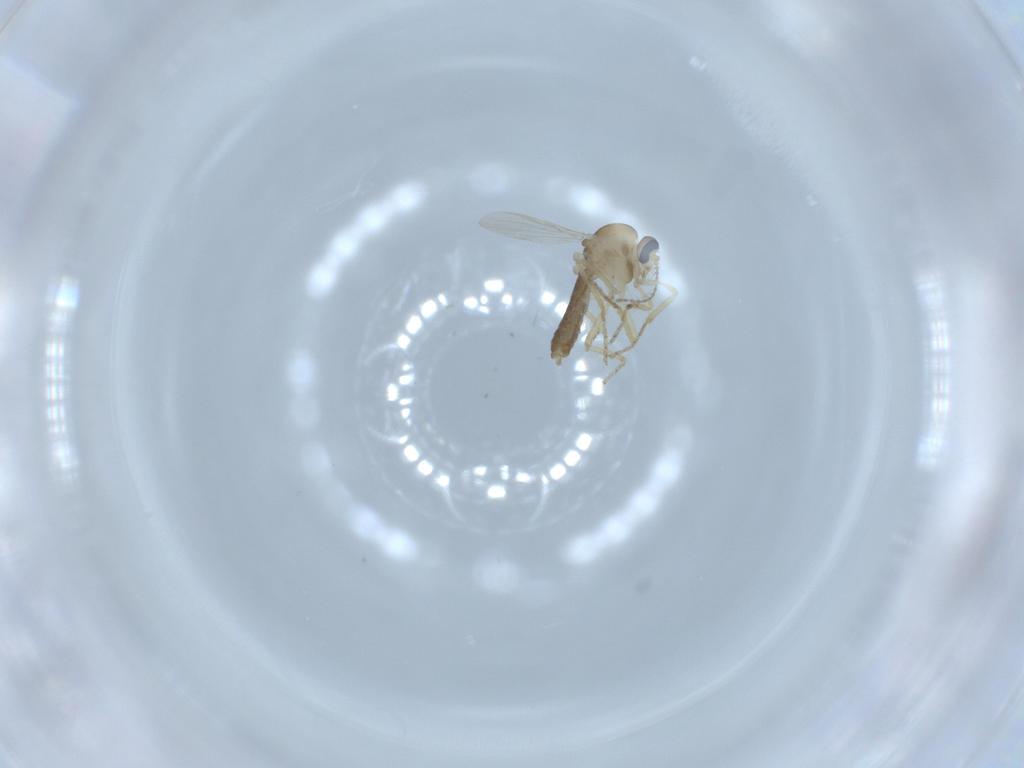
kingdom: Animalia
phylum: Arthropoda
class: Insecta
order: Diptera
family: Ceratopogonidae
